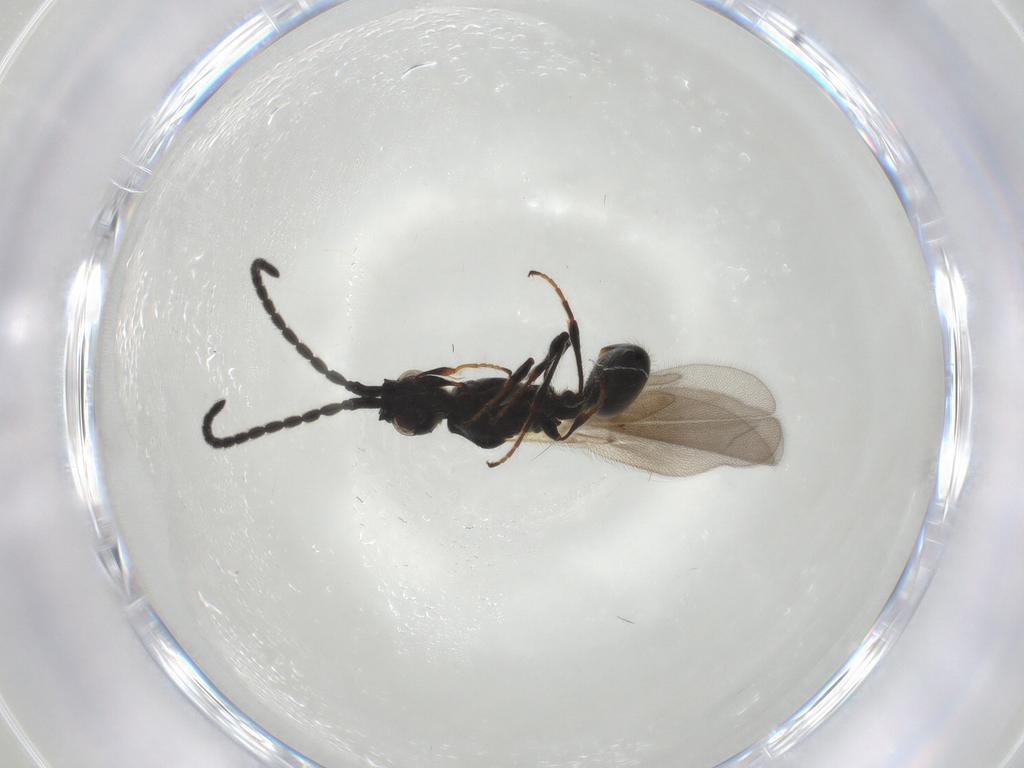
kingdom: Animalia
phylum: Arthropoda
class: Insecta
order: Hymenoptera
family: Diapriidae
